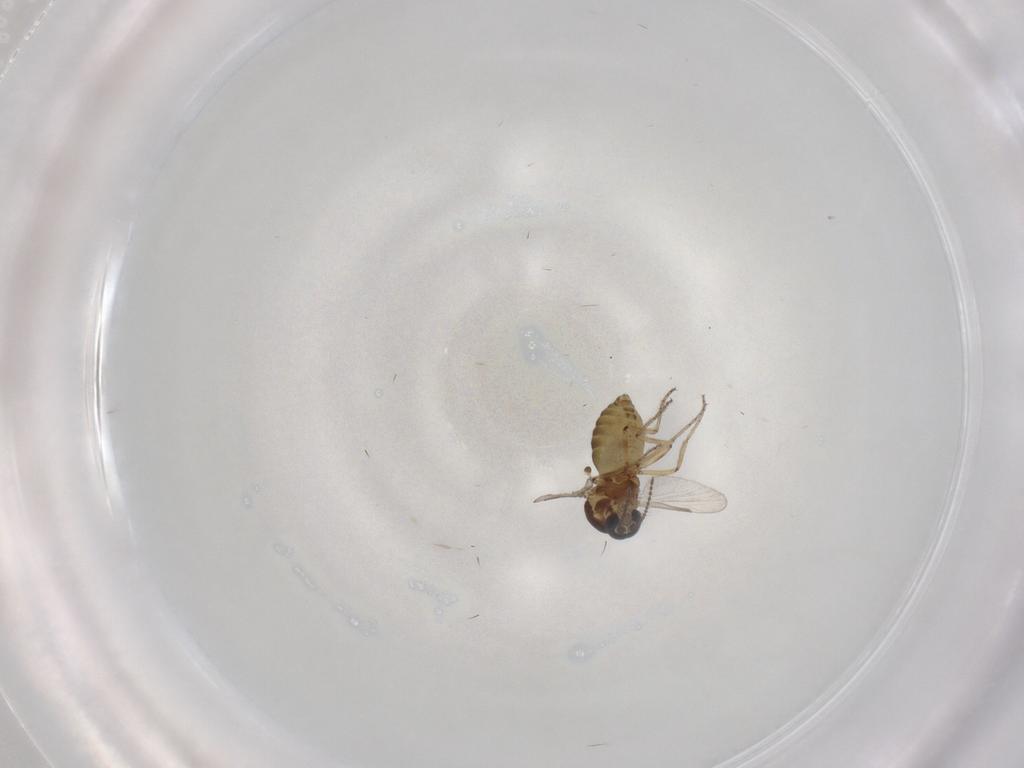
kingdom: Animalia
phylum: Arthropoda
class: Insecta
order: Diptera
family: Ceratopogonidae
